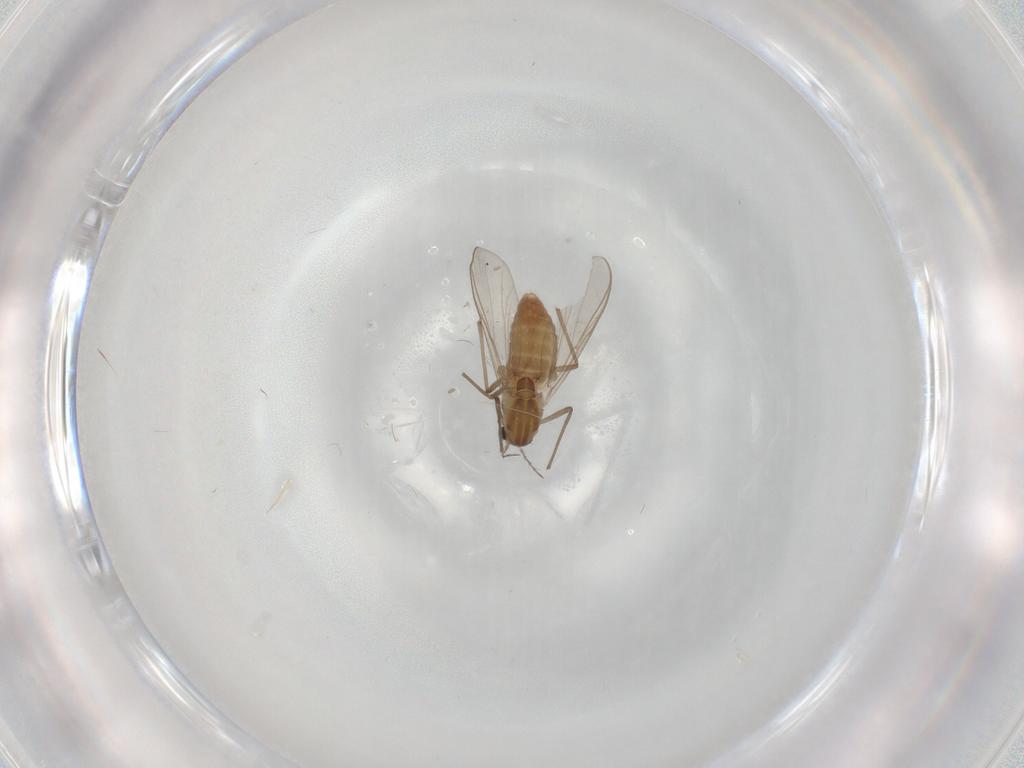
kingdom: Animalia
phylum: Arthropoda
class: Insecta
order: Diptera
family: Chironomidae
